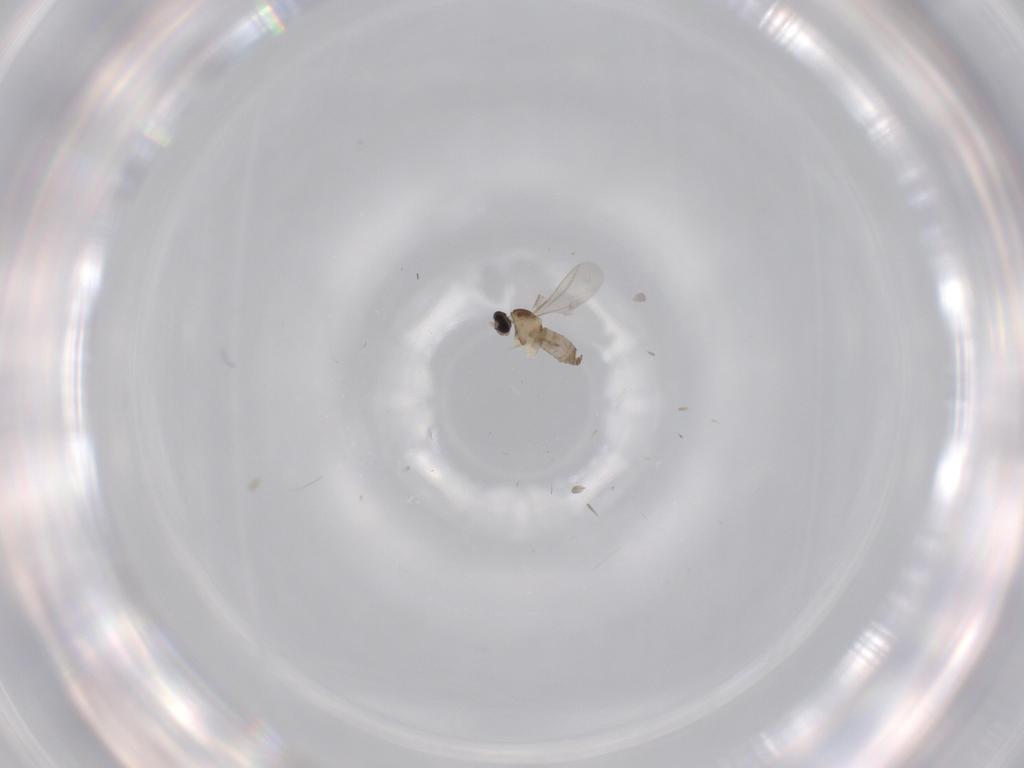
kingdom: Animalia
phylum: Arthropoda
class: Insecta
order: Diptera
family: Cecidomyiidae
